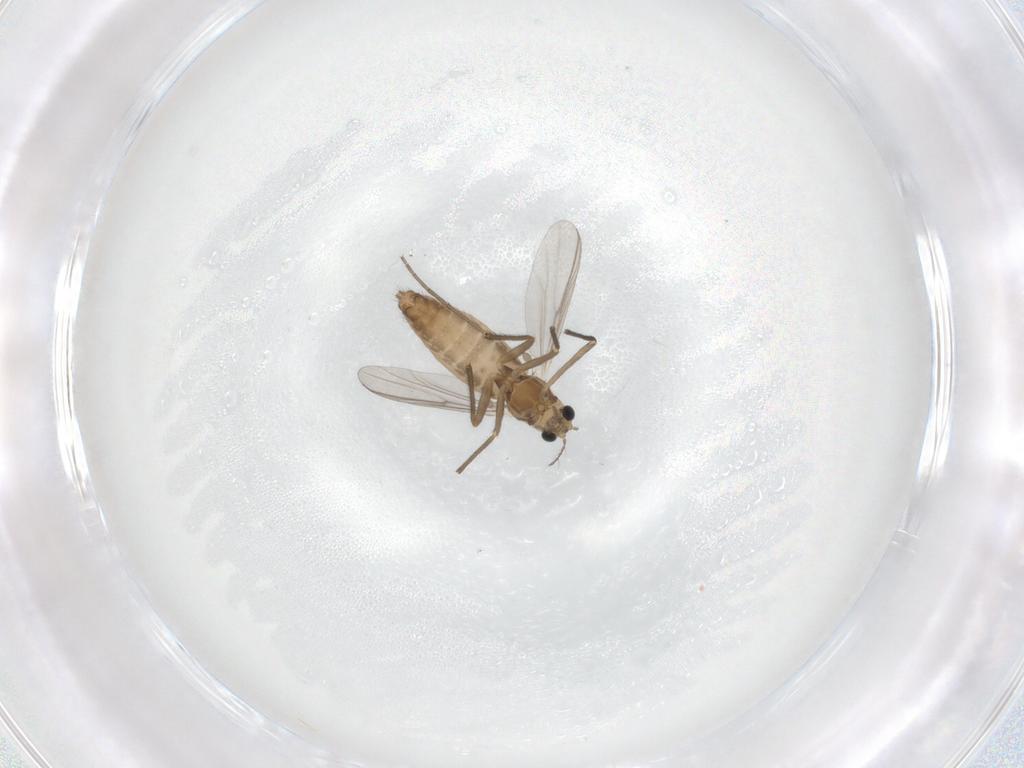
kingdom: Animalia
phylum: Arthropoda
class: Insecta
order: Diptera
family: Chironomidae
